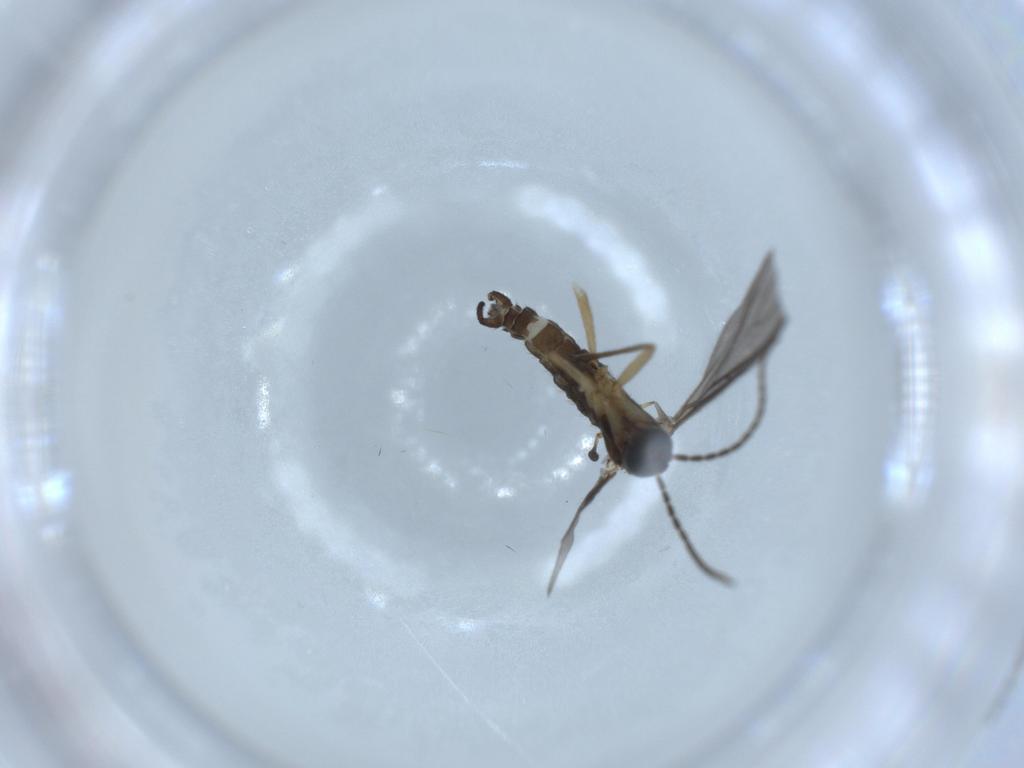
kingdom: Animalia
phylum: Arthropoda
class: Insecta
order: Diptera
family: Sciaridae
